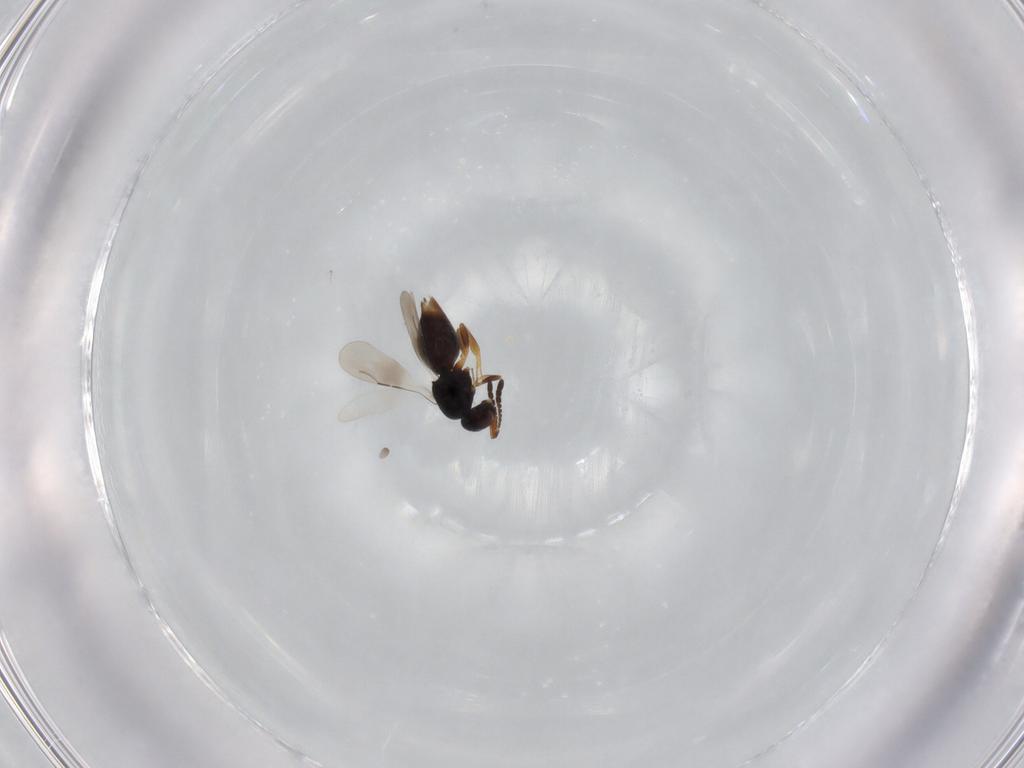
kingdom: Animalia
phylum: Arthropoda
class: Insecta
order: Hymenoptera
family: Ceraphronidae
